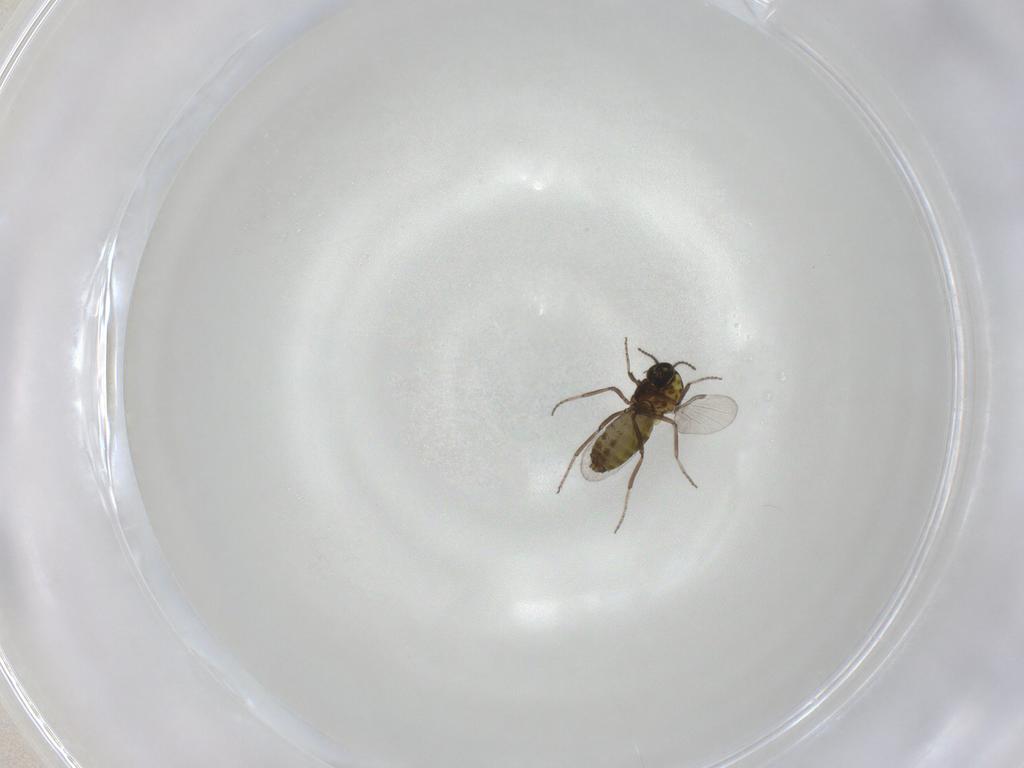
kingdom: Animalia
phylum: Arthropoda
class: Insecta
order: Diptera
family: Ceratopogonidae
